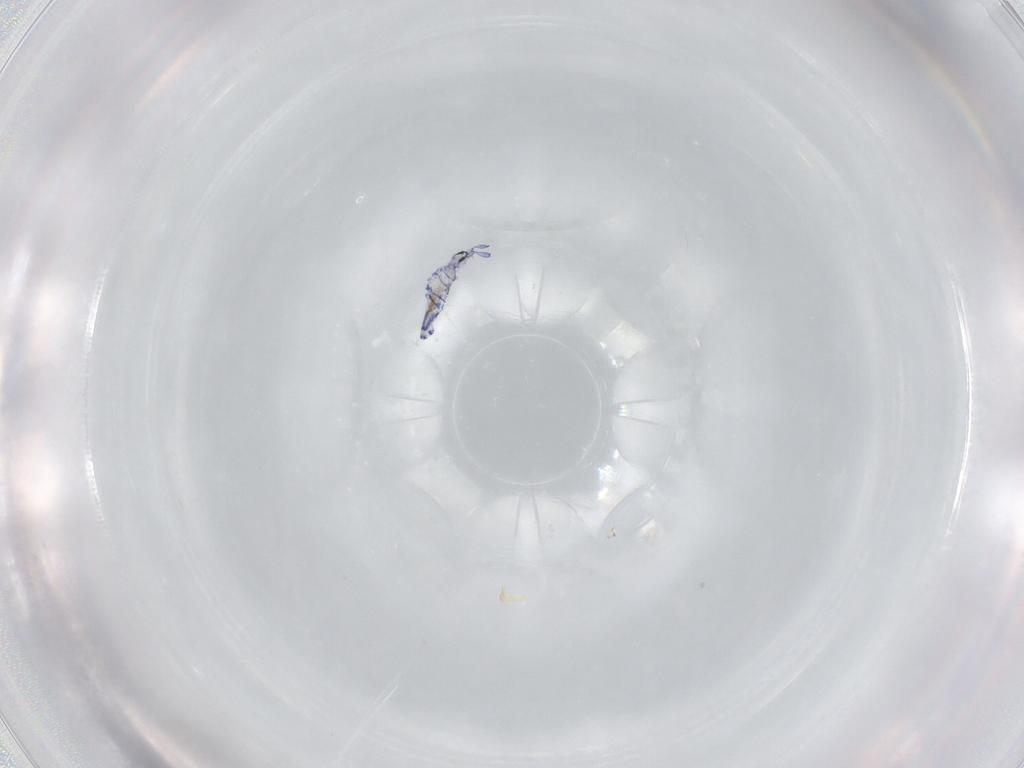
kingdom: Animalia
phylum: Arthropoda
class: Collembola
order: Entomobryomorpha
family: Entomobryidae
